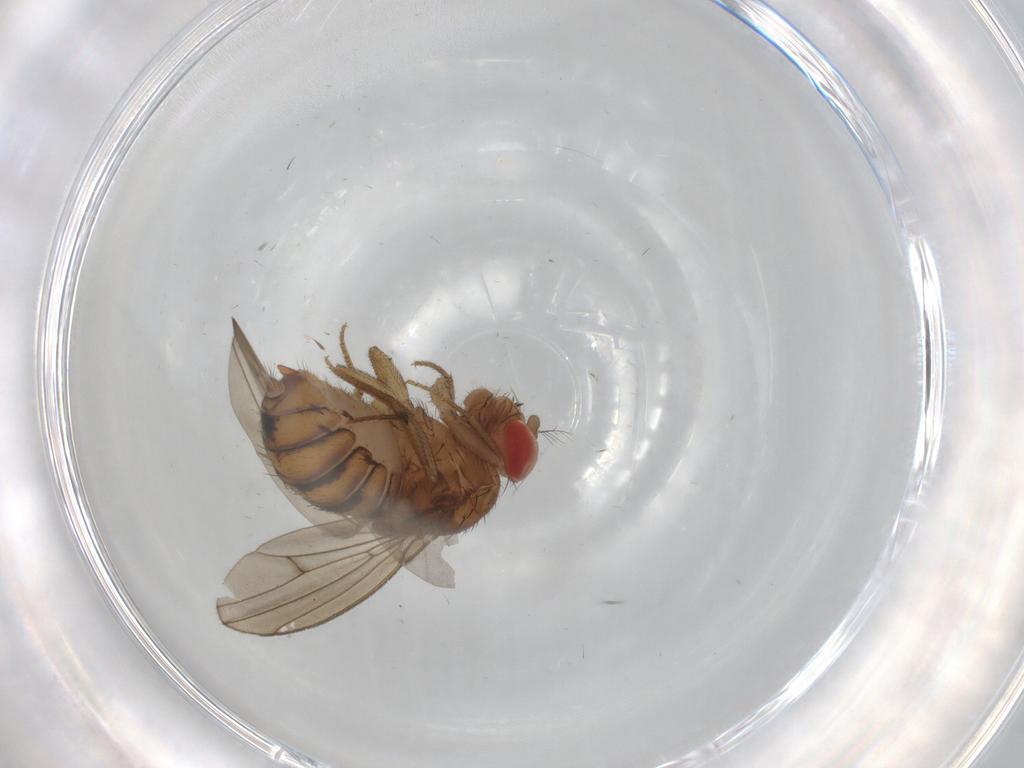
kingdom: Animalia
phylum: Arthropoda
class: Insecta
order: Diptera
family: Drosophilidae
